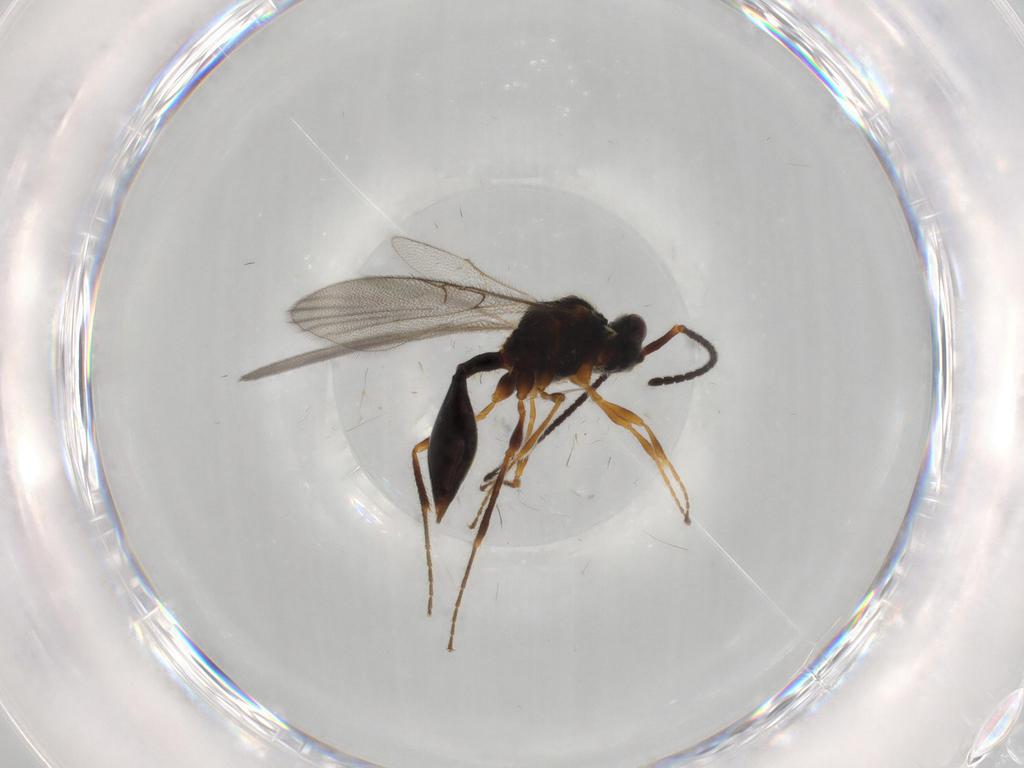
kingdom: Animalia
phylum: Arthropoda
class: Insecta
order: Hymenoptera
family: Diapriidae
